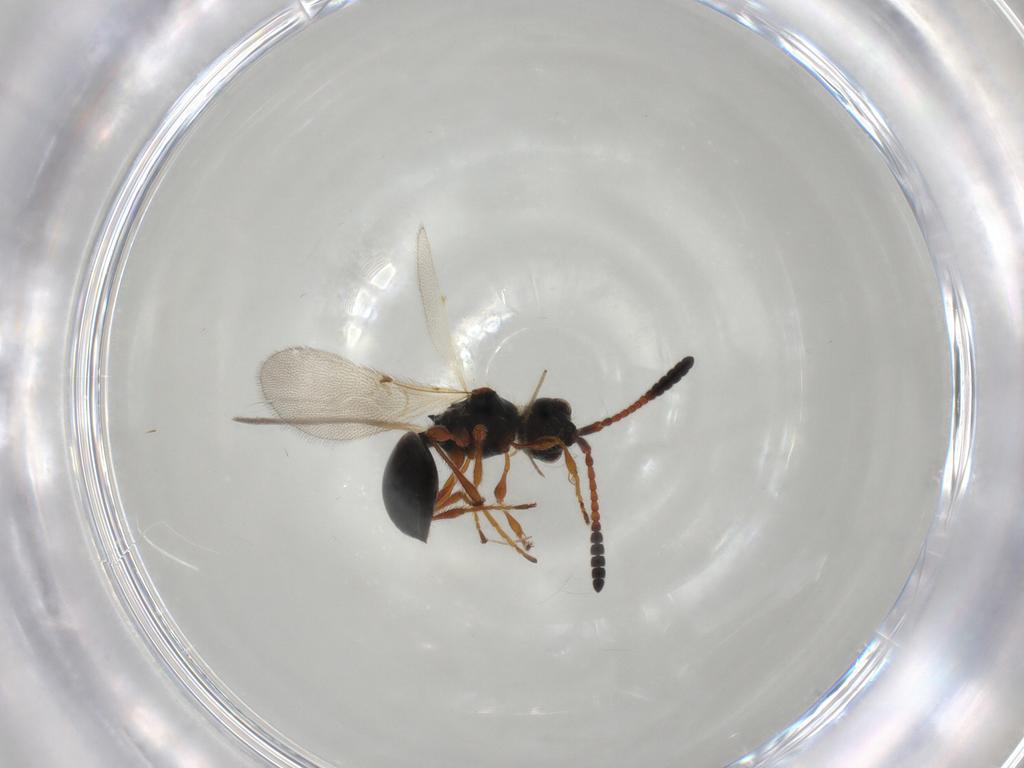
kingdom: Animalia
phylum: Arthropoda
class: Insecta
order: Hymenoptera
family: Diapriidae
